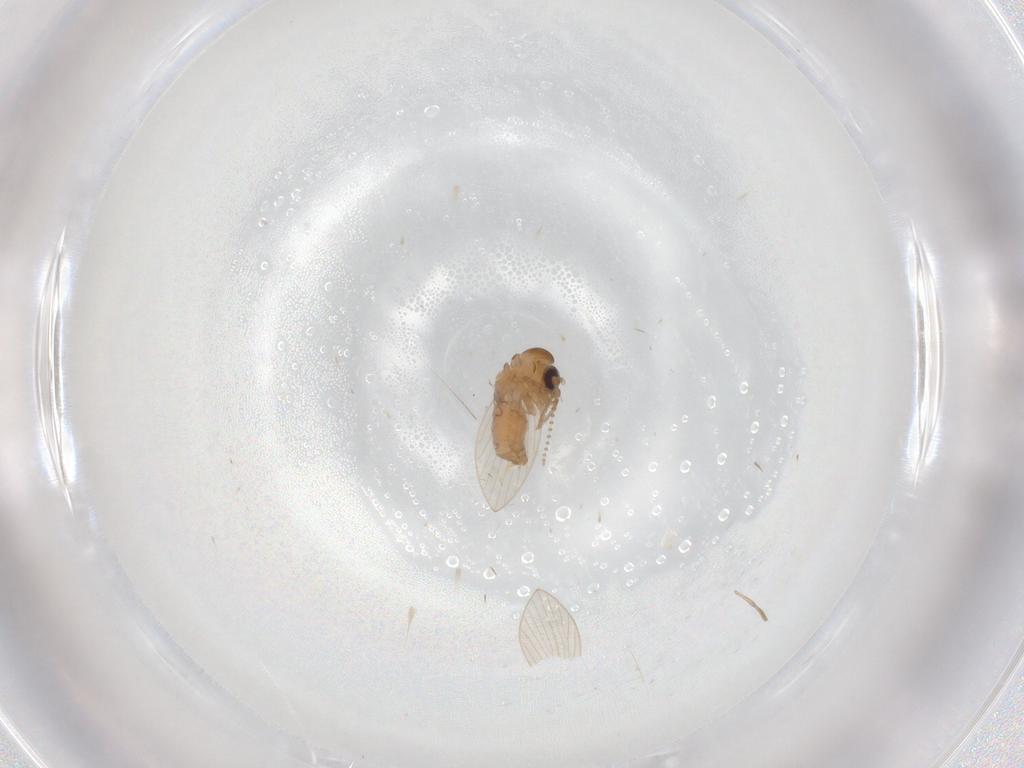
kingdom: Animalia
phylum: Arthropoda
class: Insecta
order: Diptera
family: Psychodidae
